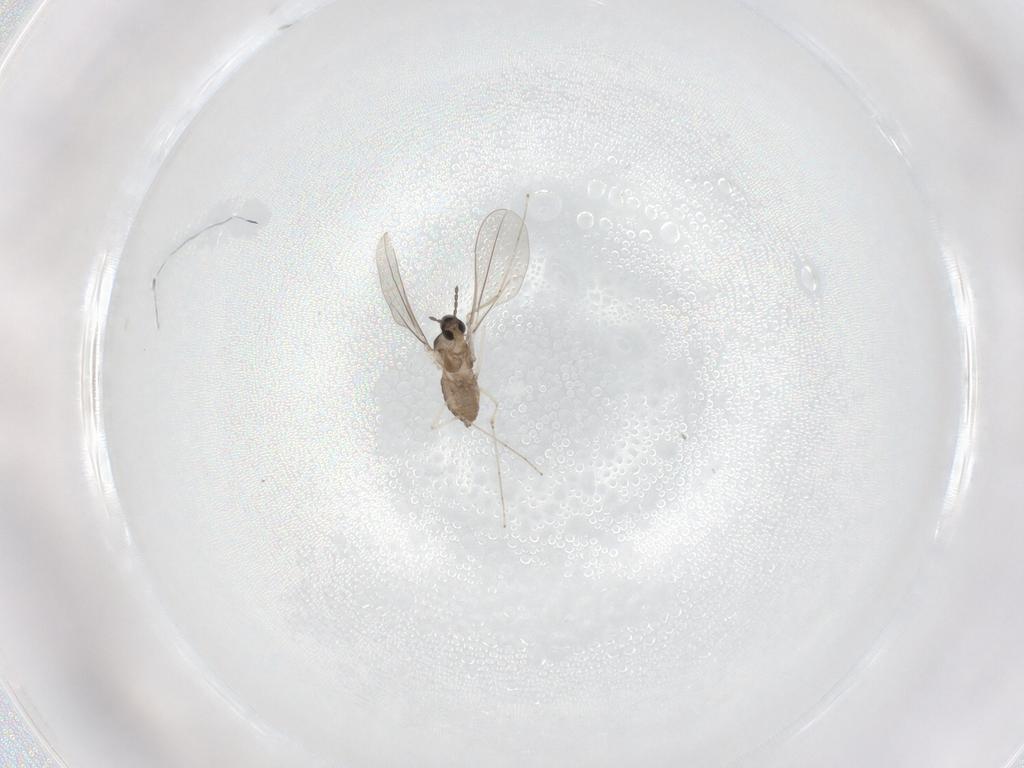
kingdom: Animalia
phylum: Arthropoda
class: Insecta
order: Diptera
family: Cecidomyiidae
